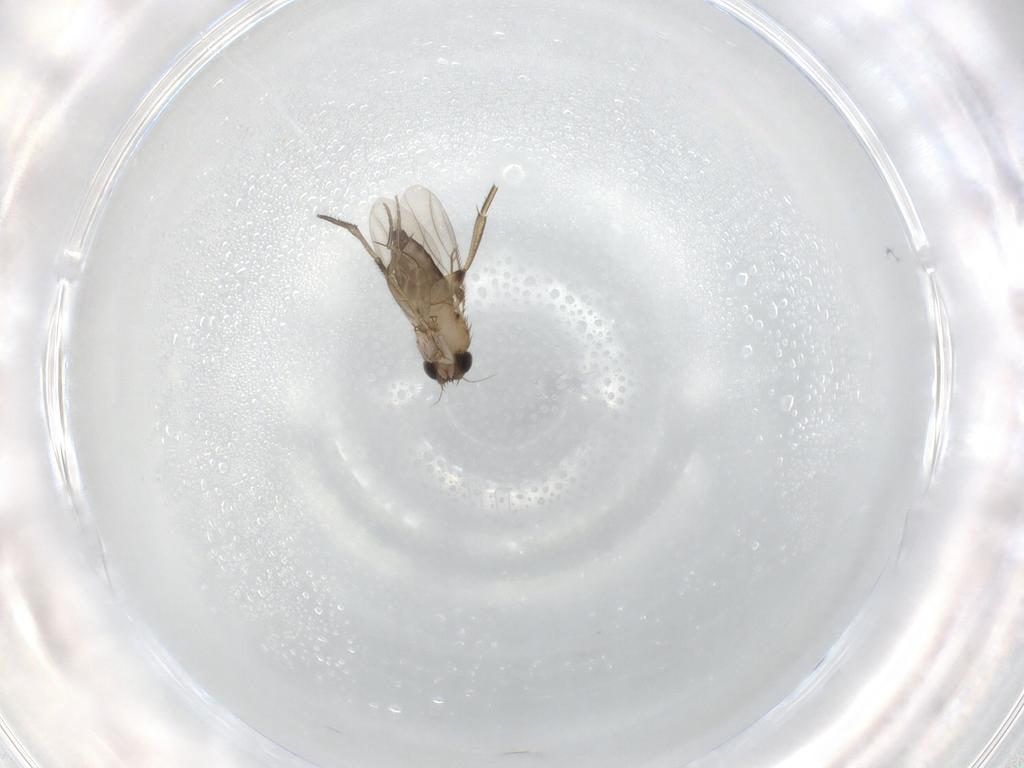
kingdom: Animalia
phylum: Arthropoda
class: Insecta
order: Diptera
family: Phoridae
